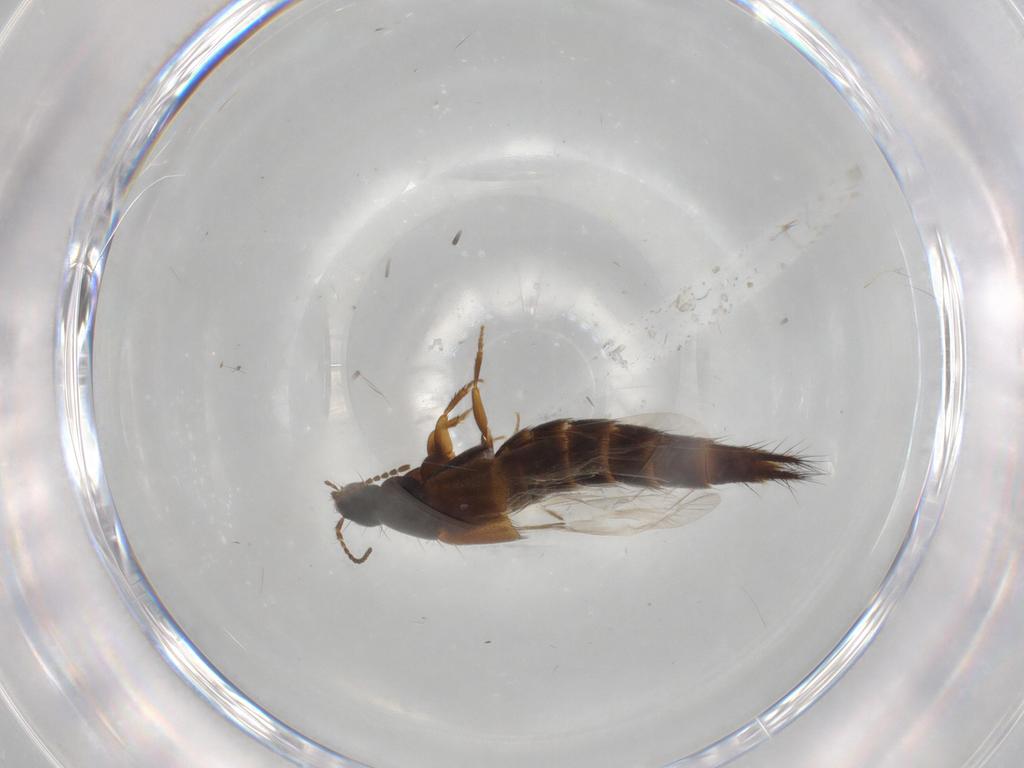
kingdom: Animalia
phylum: Arthropoda
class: Insecta
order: Coleoptera
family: Staphylinidae
